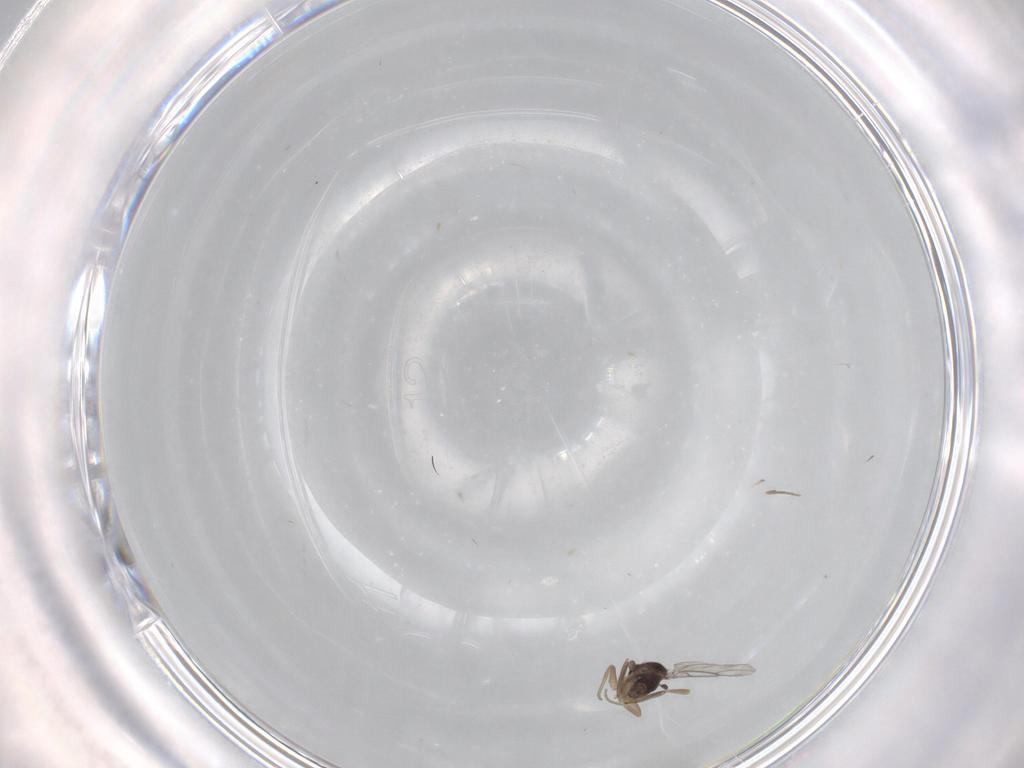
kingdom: Animalia
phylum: Arthropoda
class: Insecta
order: Diptera
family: Phoridae
